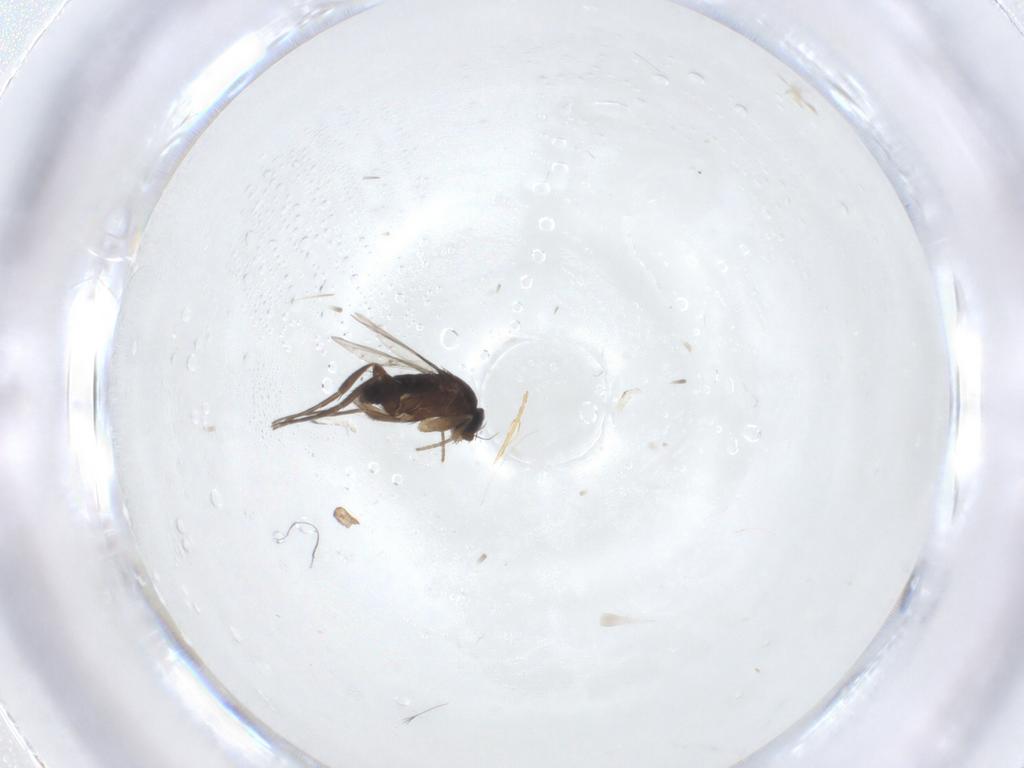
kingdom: Animalia
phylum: Arthropoda
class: Insecta
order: Diptera
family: Phoridae
